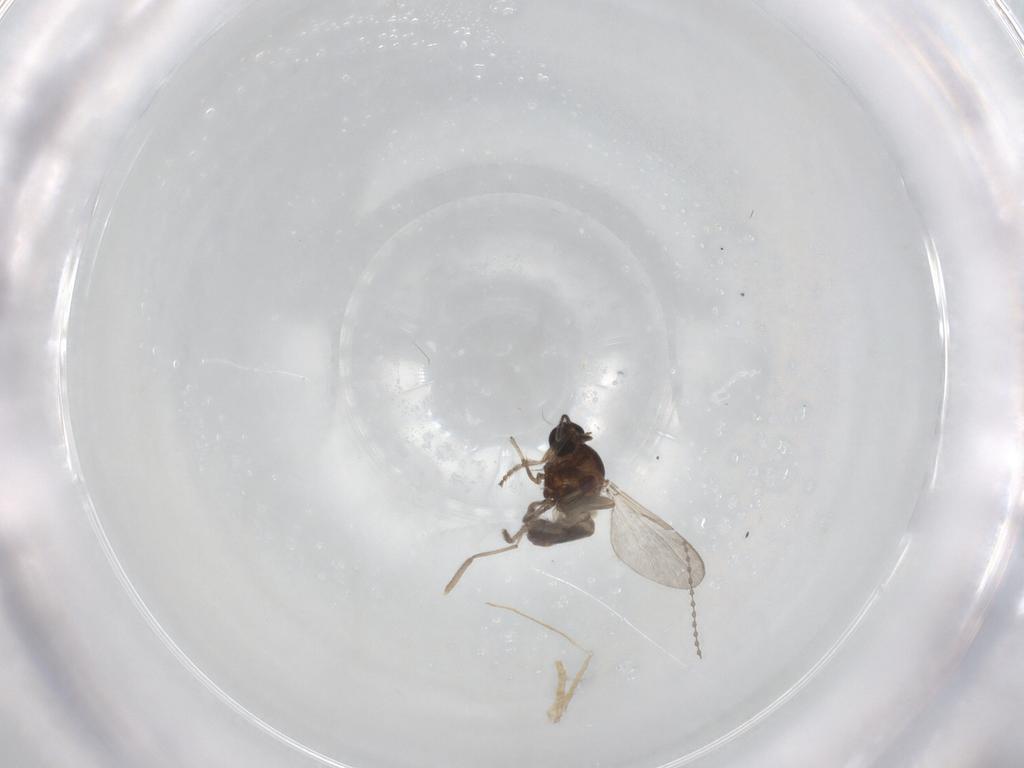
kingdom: Animalia
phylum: Arthropoda
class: Insecta
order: Diptera
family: Ceratopogonidae
